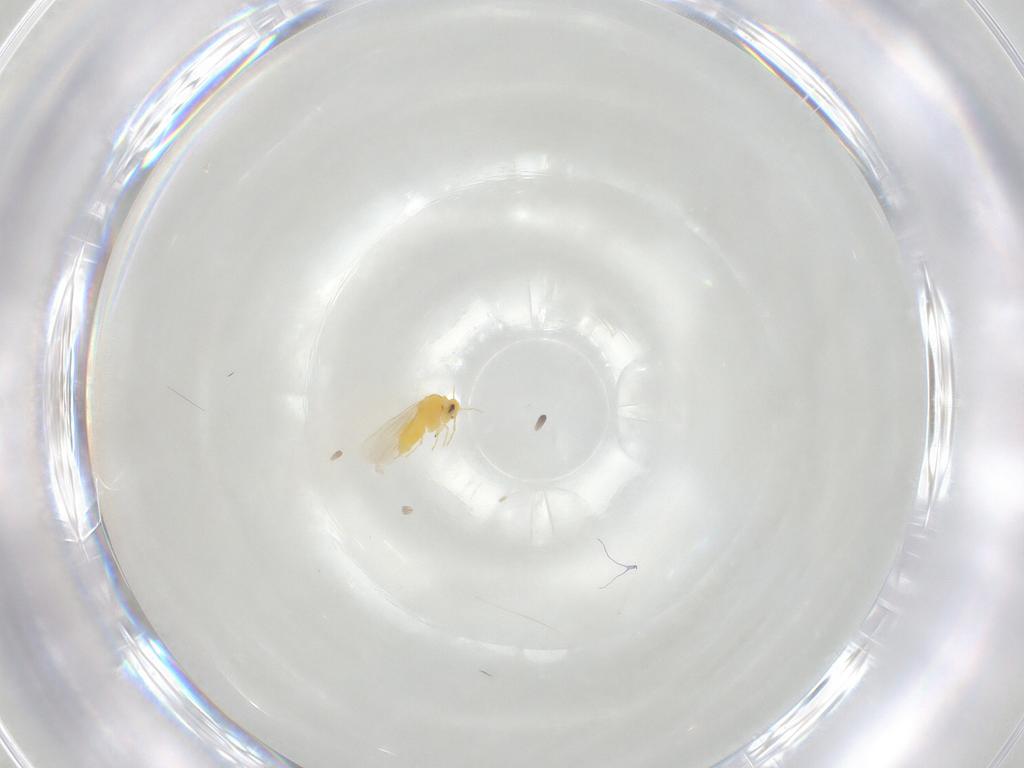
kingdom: Animalia
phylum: Arthropoda
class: Insecta
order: Hemiptera
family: Aleyrodidae
